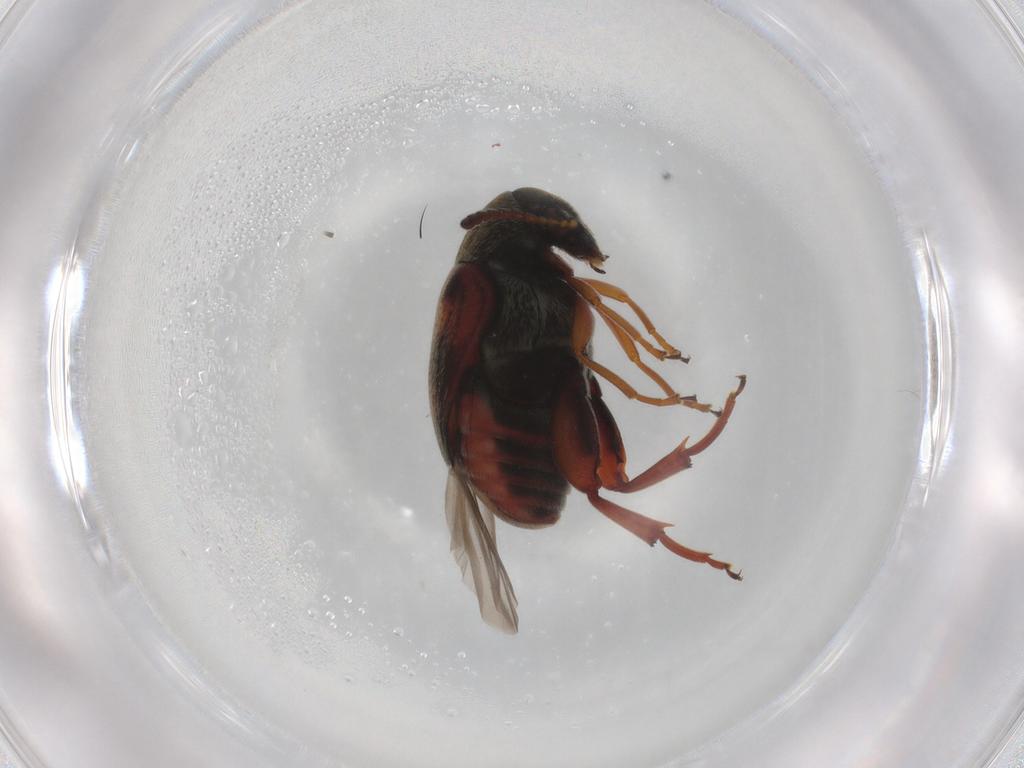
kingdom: Animalia
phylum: Arthropoda
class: Insecta
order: Coleoptera
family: Chrysomelidae
